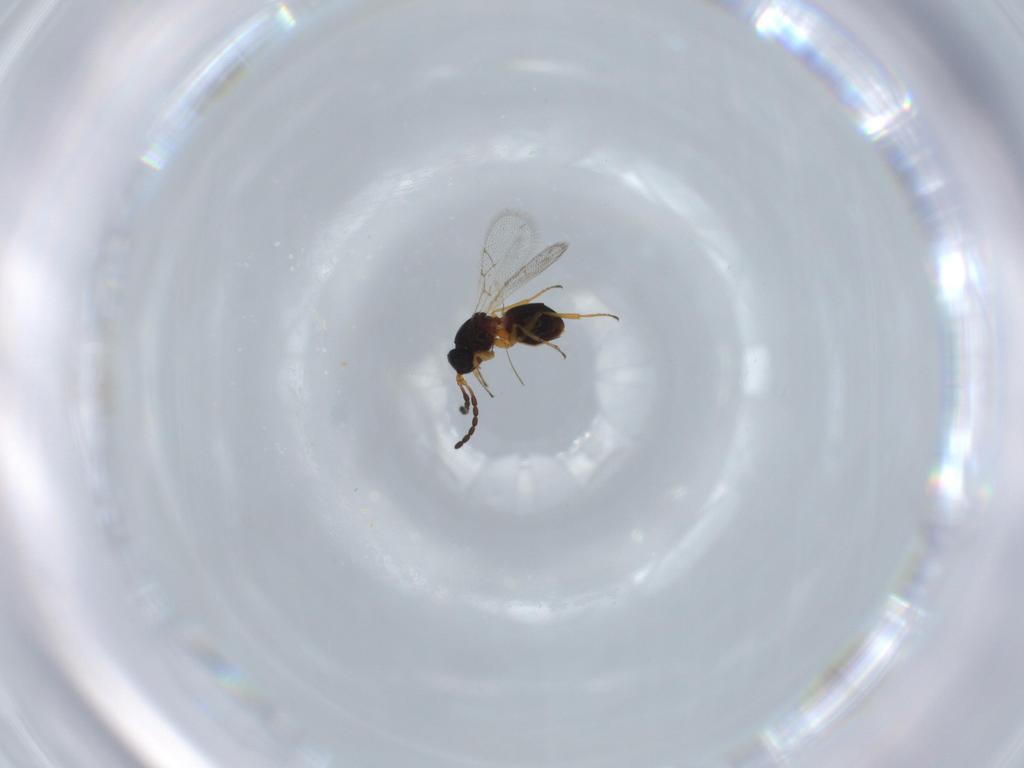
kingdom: Animalia
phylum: Arthropoda
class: Insecta
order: Hymenoptera
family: Figitidae
